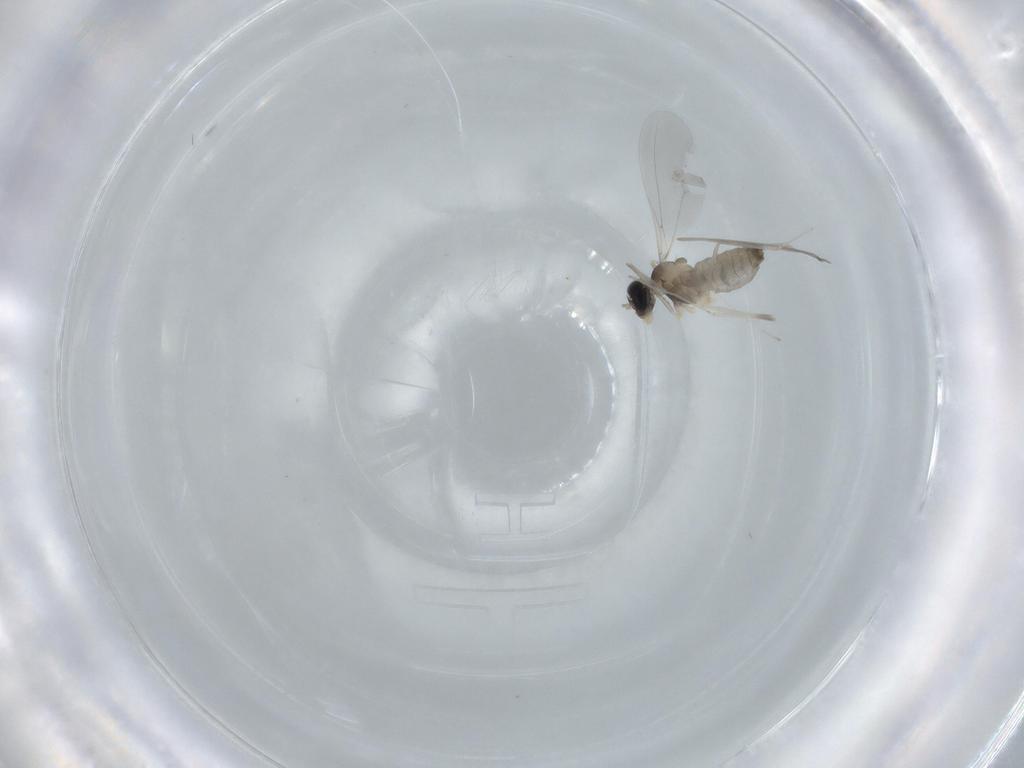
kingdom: Animalia
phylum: Arthropoda
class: Insecta
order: Diptera
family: Cecidomyiidae
